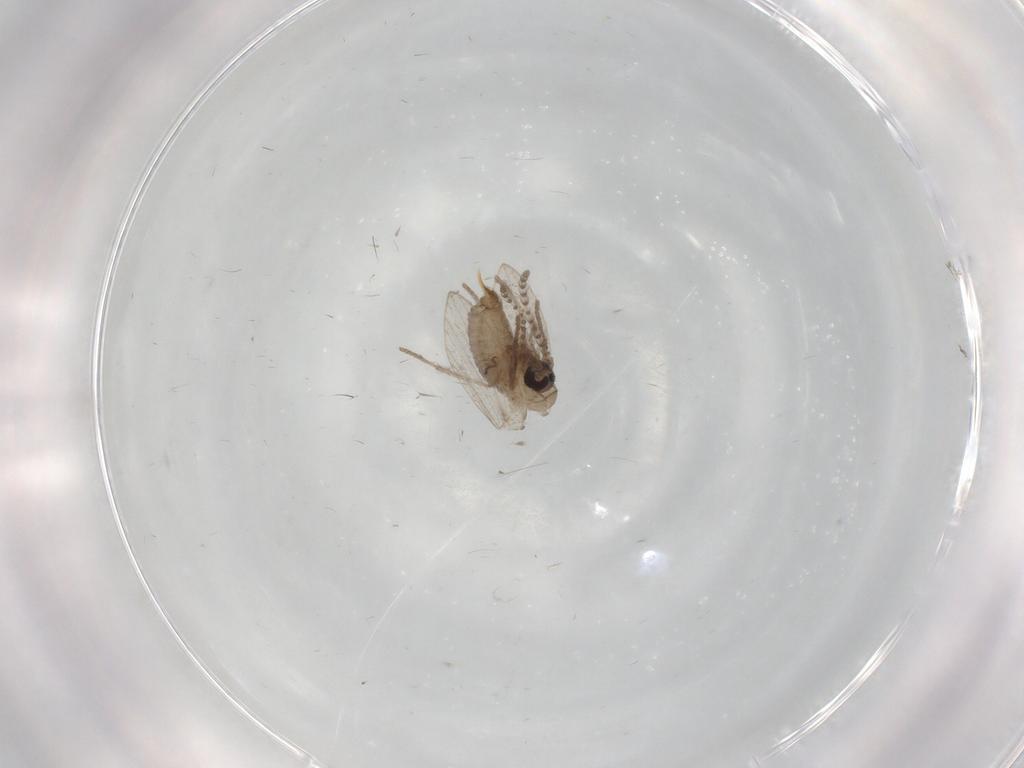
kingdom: Animalia
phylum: Arthropoda
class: Insecta
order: Diptera
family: Psychodidae
